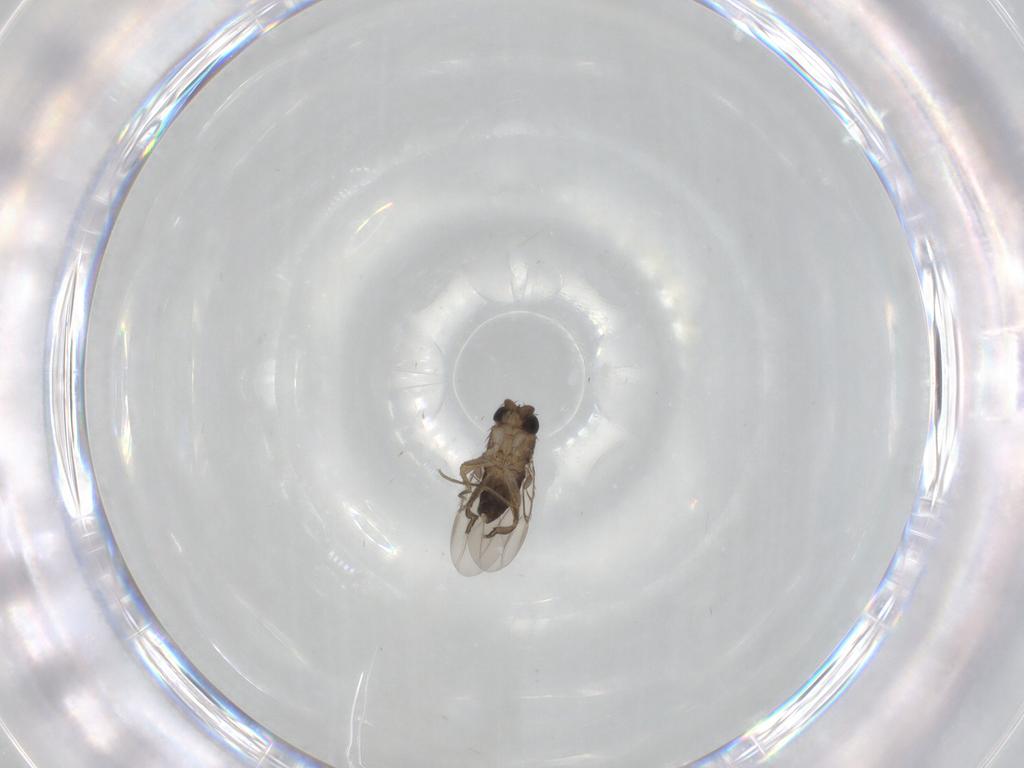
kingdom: Animalia
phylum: Arthropoda
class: Insecta
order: Diptera
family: Phoridae
